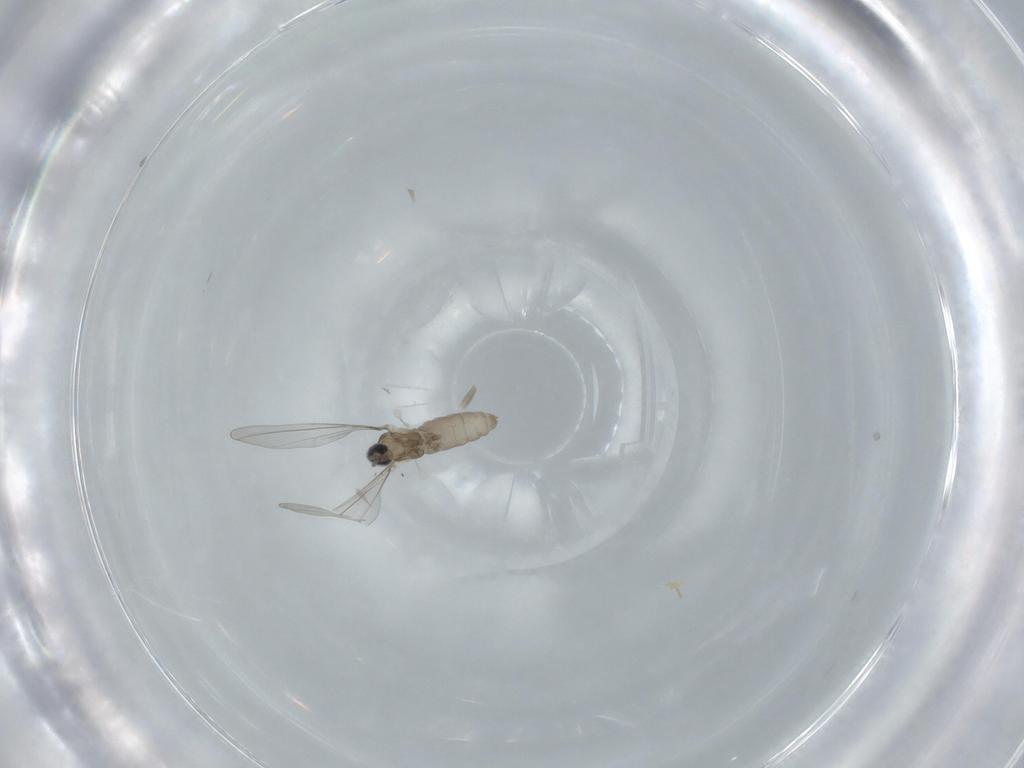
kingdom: Animalia
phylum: Arthropoda
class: Insecta
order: Diptera
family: Cecidomyiidae
